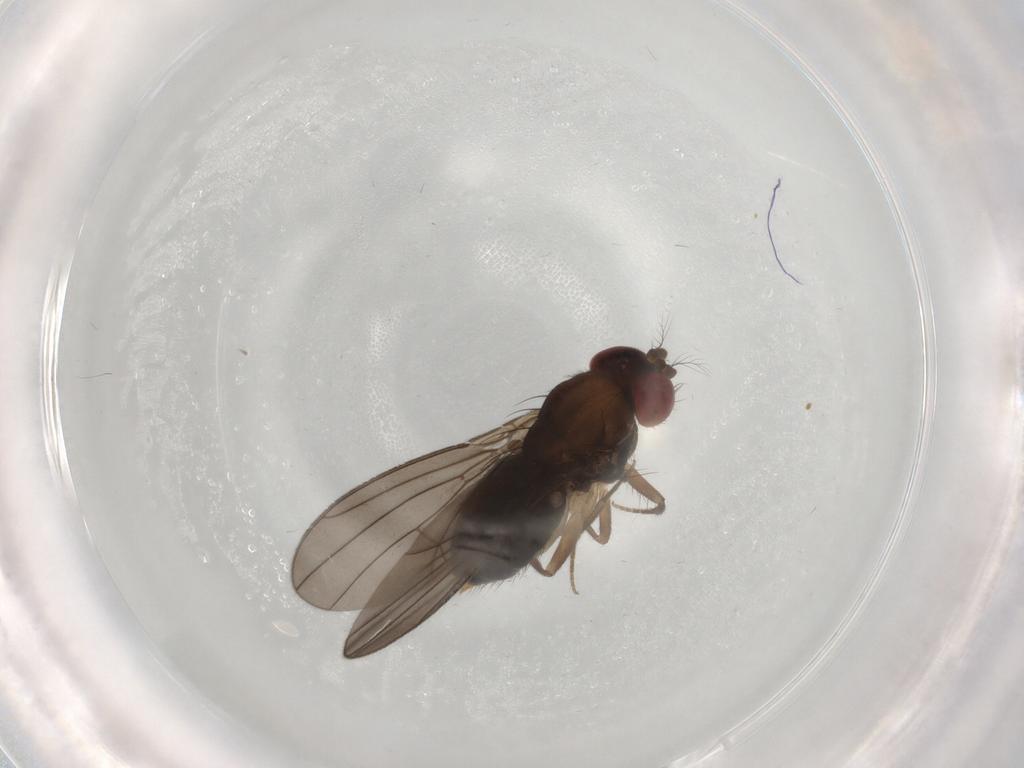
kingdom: Animalia
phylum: Arthropoda
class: Insecta
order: Diptera
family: Drosophilidae
